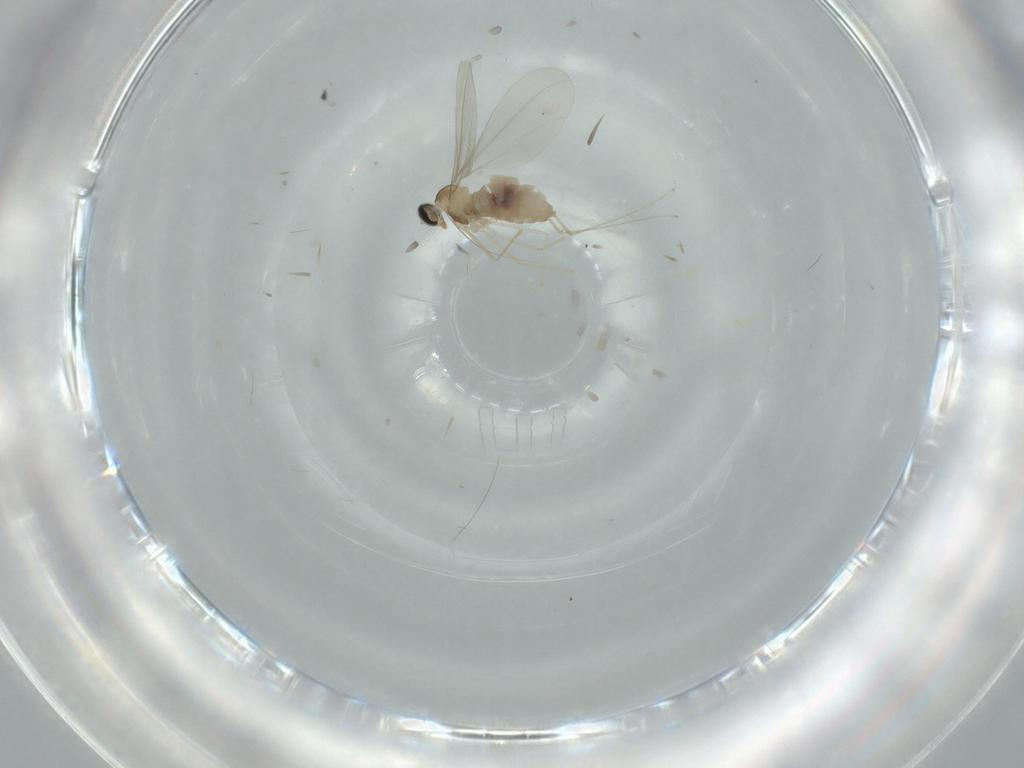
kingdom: Animalia
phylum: Arthropoda
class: Insecta
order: Diptera
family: Cecidomyiidae
